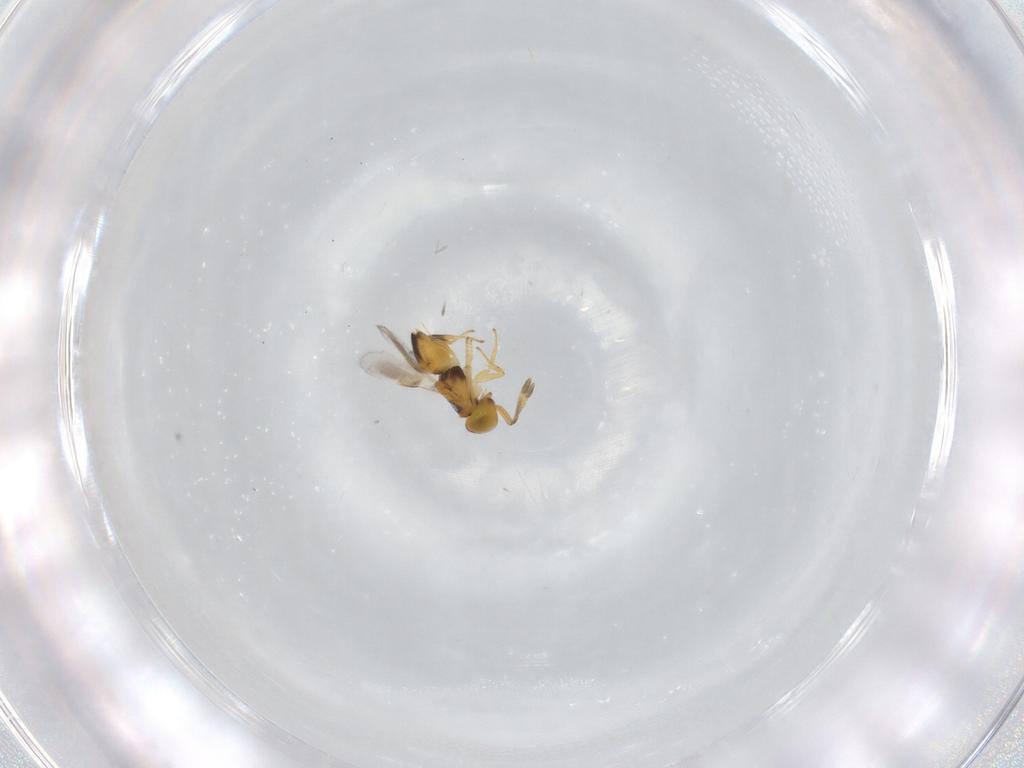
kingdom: Animalia
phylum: Arthropoda
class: Insecta
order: Hymenoptera
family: Encyrtidae
